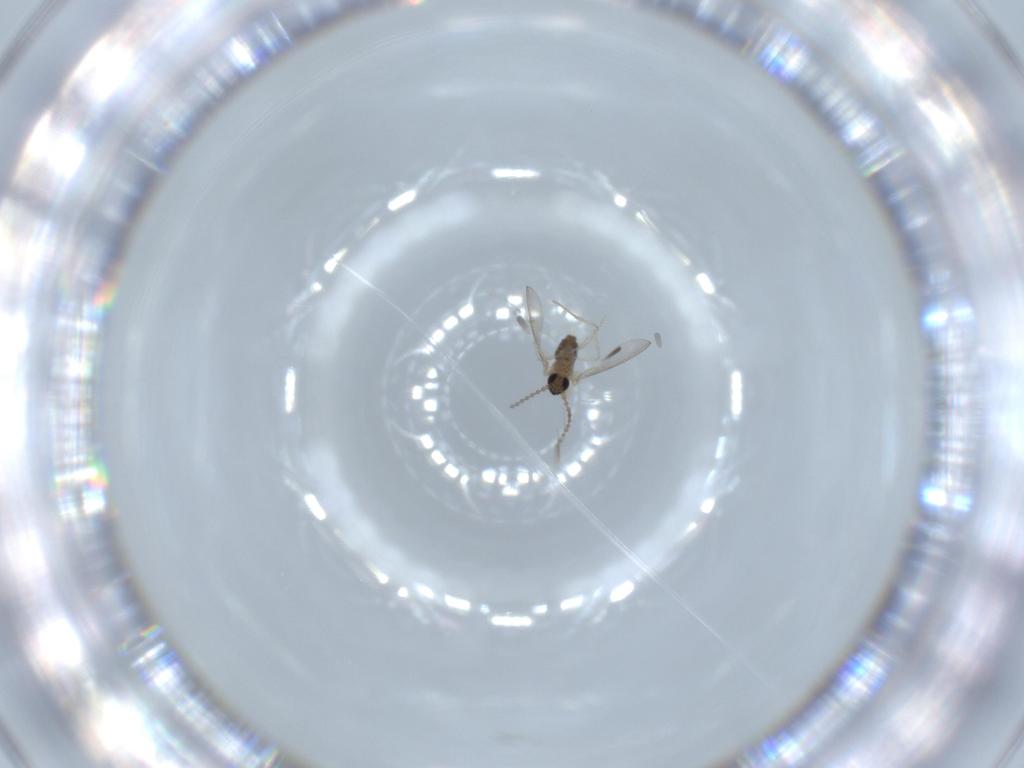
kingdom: Animalia
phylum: Arthropoda
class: Insecta
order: Diptera
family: Cecidomyiidae
